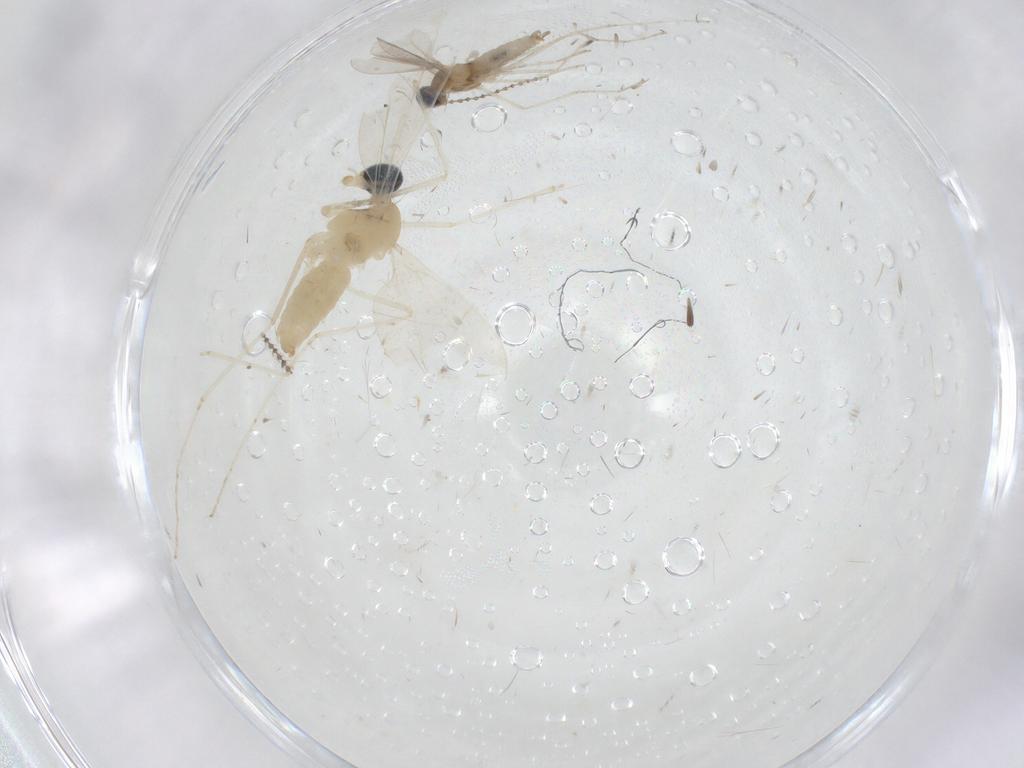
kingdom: Animalia
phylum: Arthropoda
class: Insecta
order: Diptera
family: Cecidomyiidae
